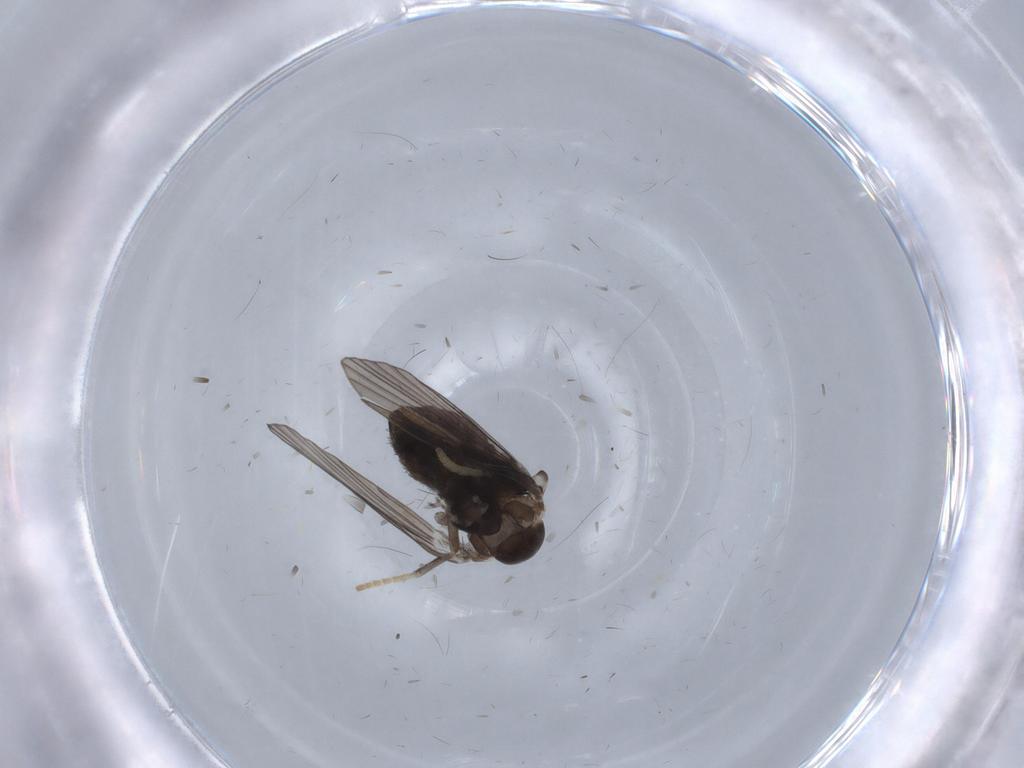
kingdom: Animalia
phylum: Arthropoda
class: Insecta
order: Diptera
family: Psychodidae
